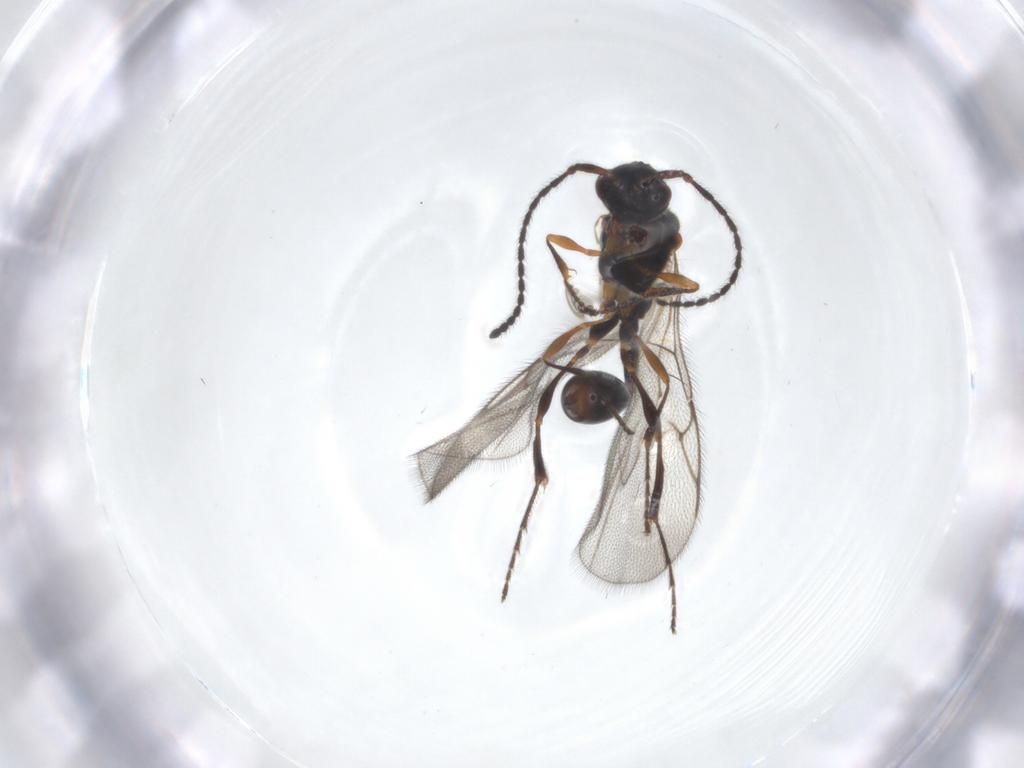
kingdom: Animalia
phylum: Arthropoda
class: Insecta
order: Hymenoptera
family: Diapriidae
